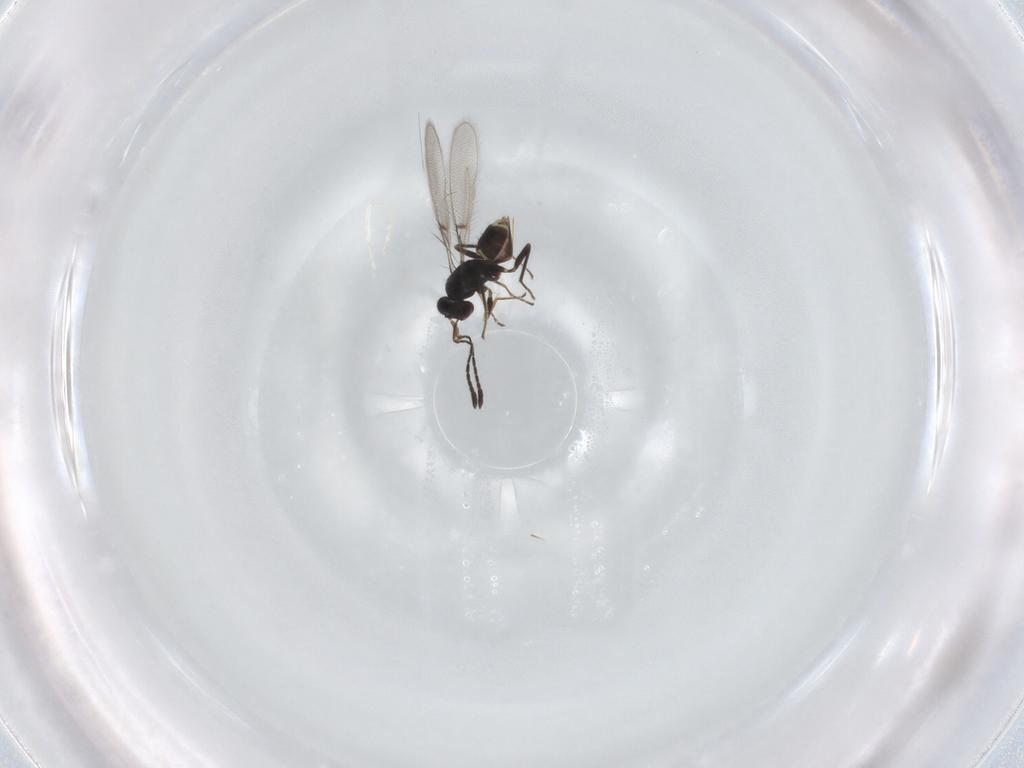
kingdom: Animalia
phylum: Arthropoda
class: Insecta
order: Hymenoptera
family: Mymaridae
